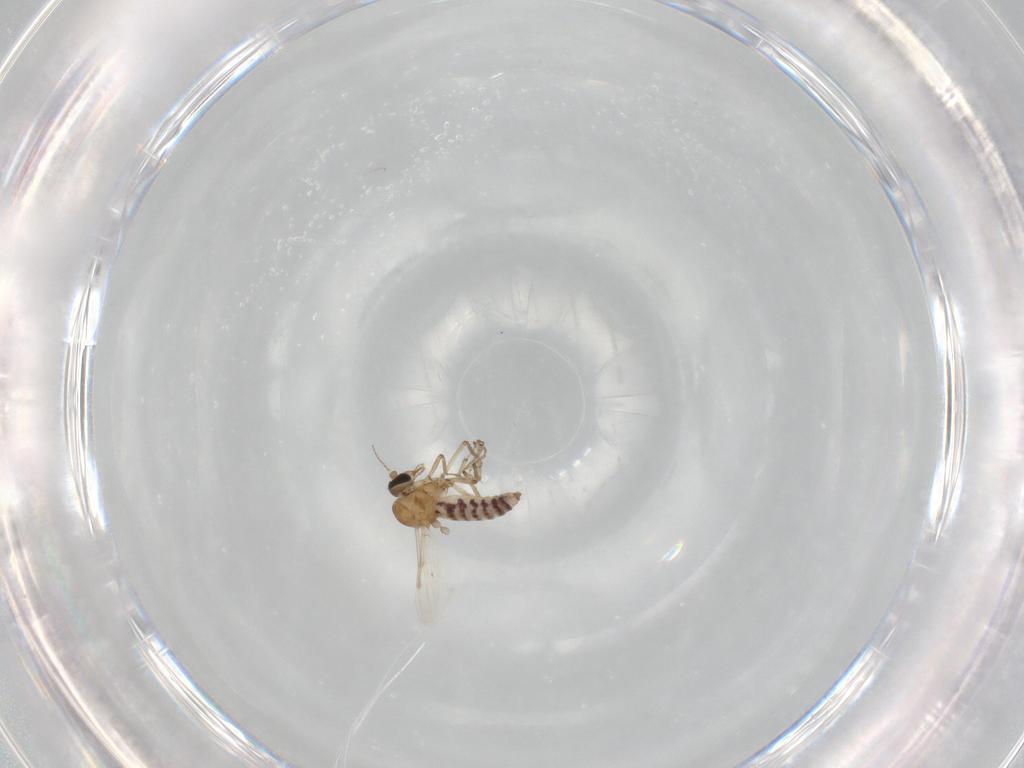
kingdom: Animalia
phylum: Arthropoda
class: Insecta
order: Diptera
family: Ceratopogonidae
